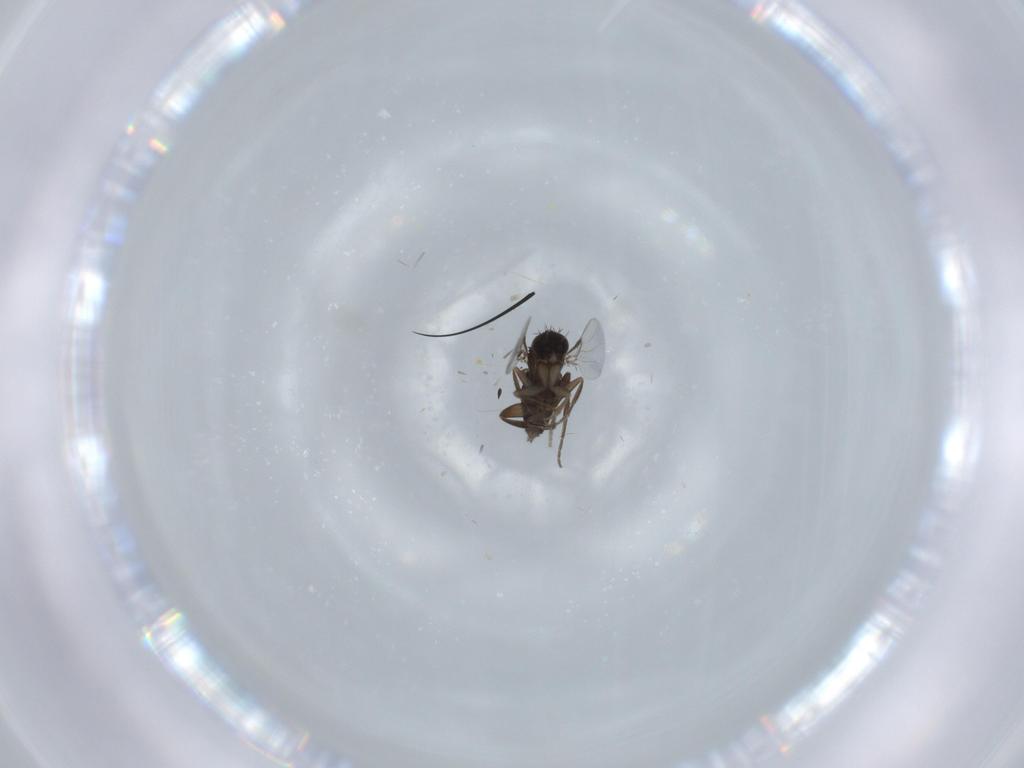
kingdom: Animalia
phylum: Arthropoda
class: Insecta
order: Diptera
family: Phoridae
